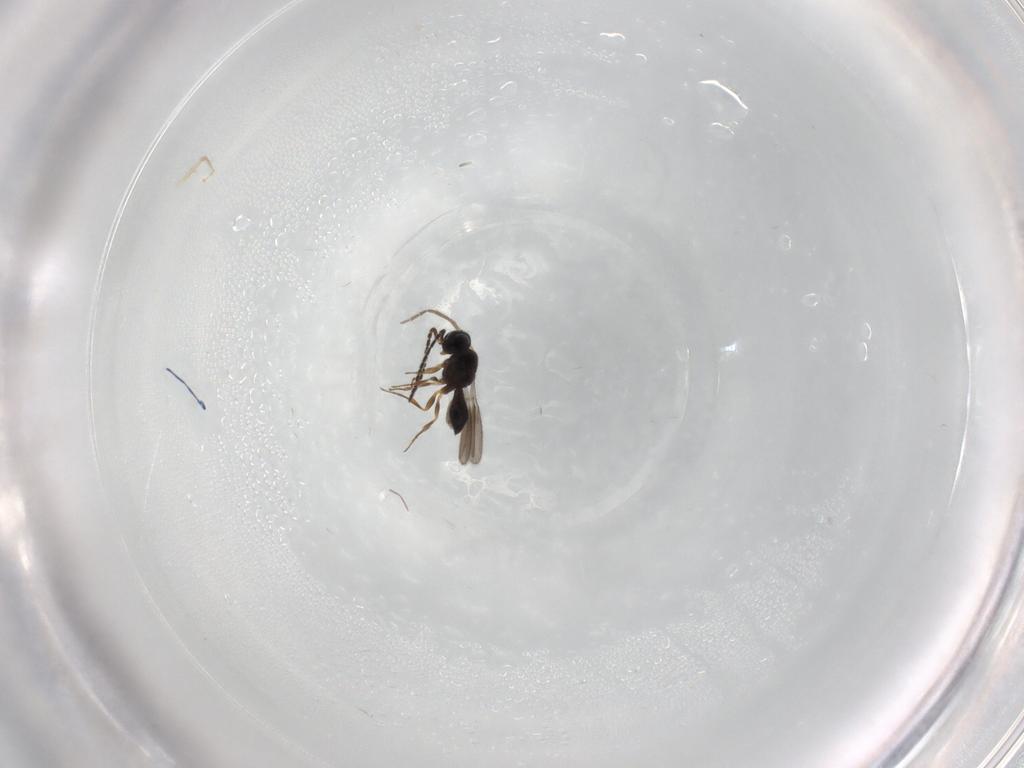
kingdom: Animalia
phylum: Arthropoda
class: Insecta
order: Hymenoptera
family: Scelionidae
